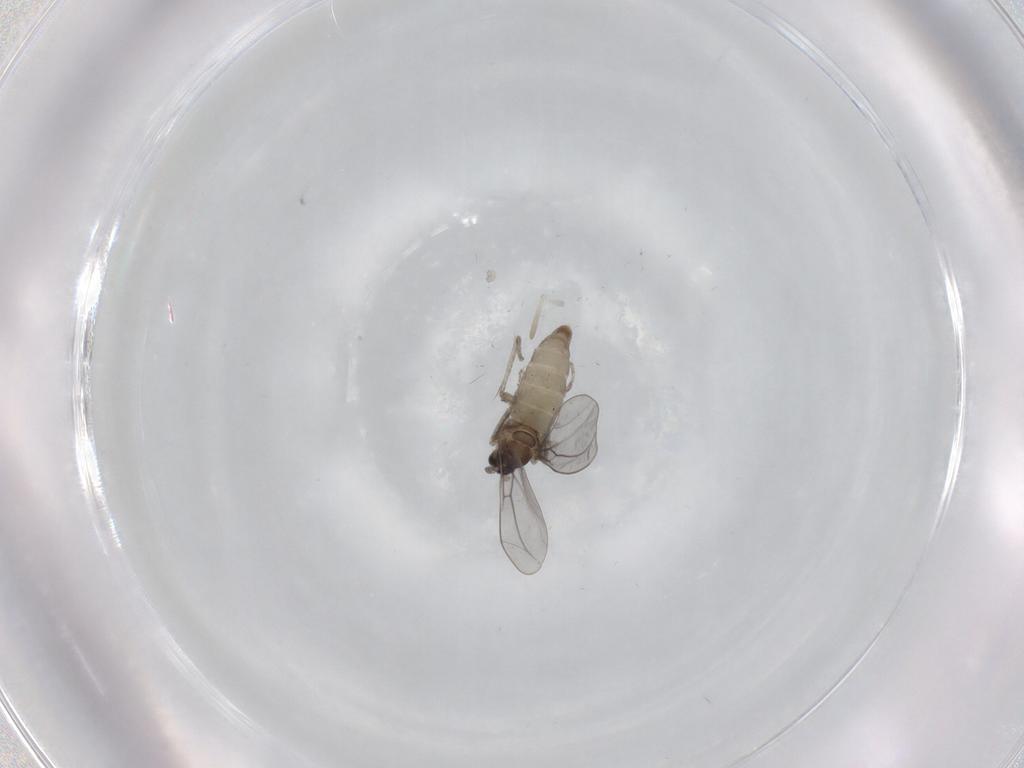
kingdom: Animalia
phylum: Arthropoda
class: Insecta
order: Diptera
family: Cecidomyiidae
